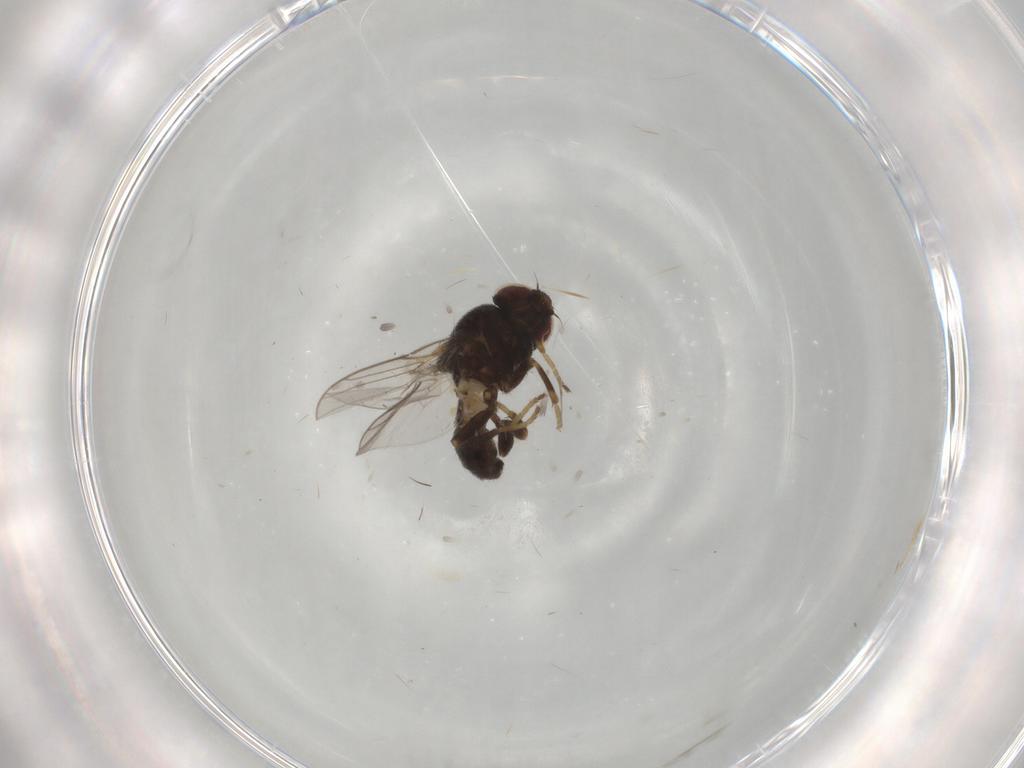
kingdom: Animalia
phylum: Arthropoda
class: Insecta
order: Diptera
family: Chloropidae
